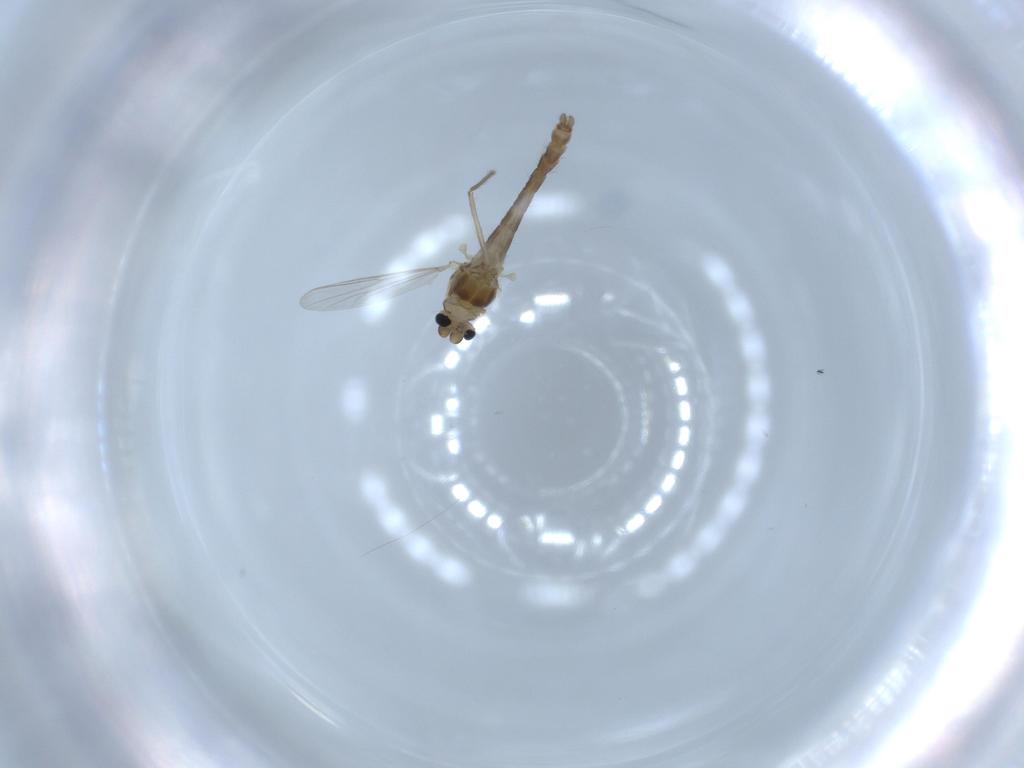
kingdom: Animalia
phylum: Arthropoda
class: Insecta
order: Diptera
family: Chironomidae
